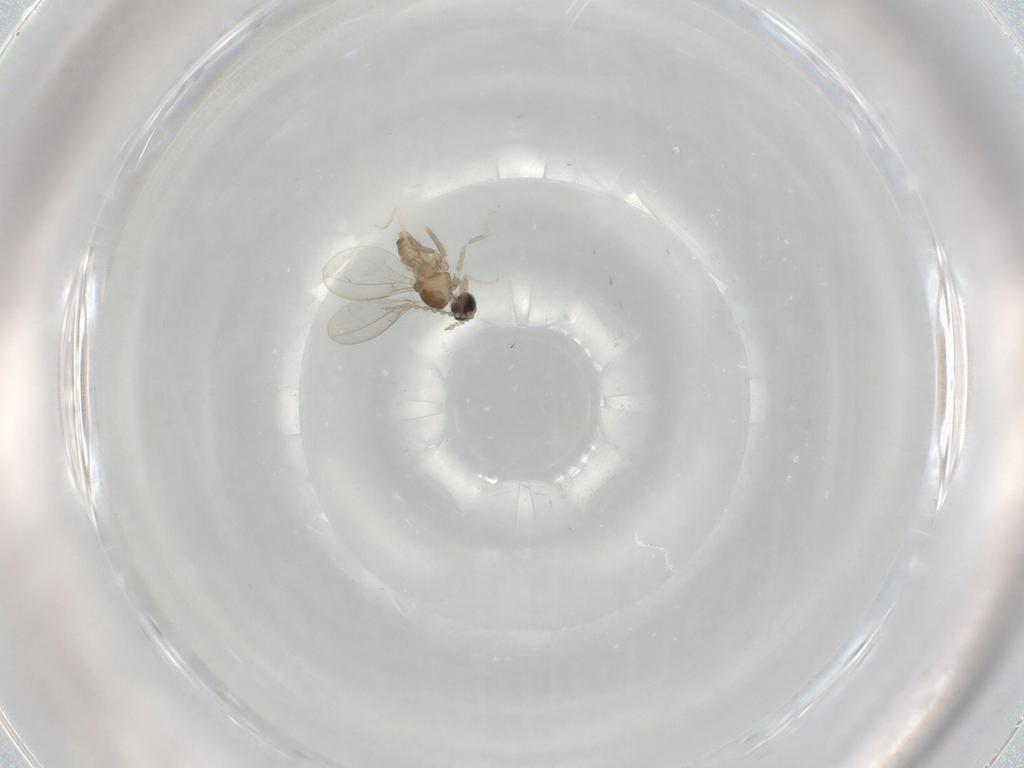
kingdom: Animalia
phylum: Arthropoda
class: Insecta
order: Diptera
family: Cecidomyiidae
